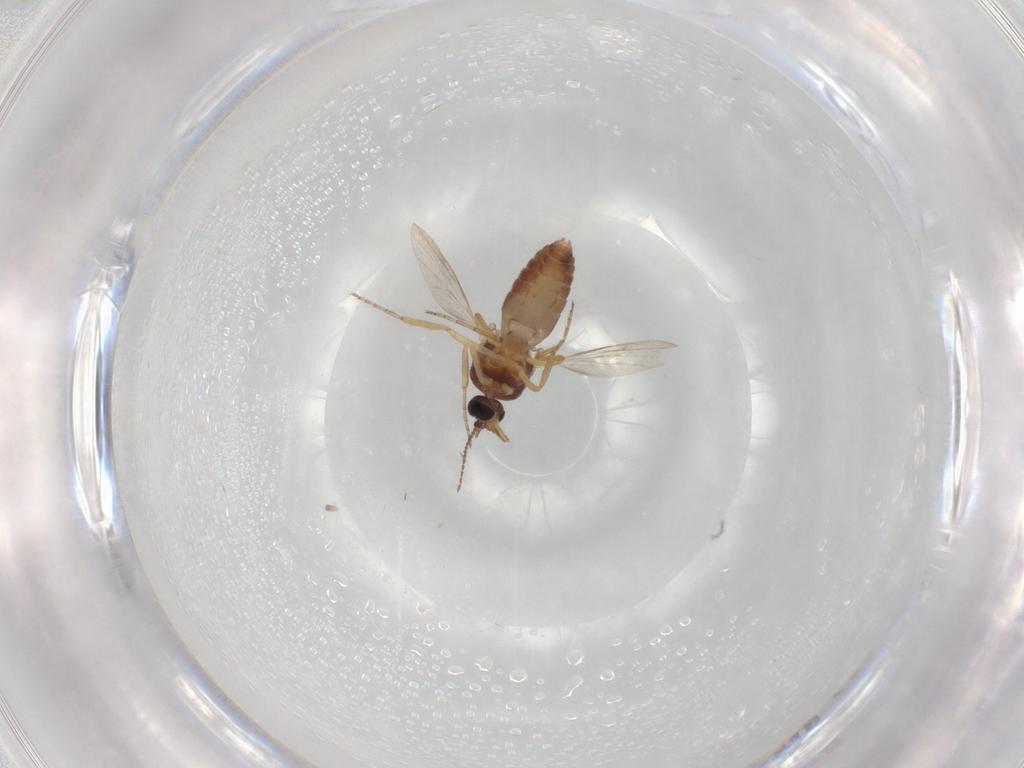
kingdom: Animalia
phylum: Arthropoda
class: Insecta
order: Diptera
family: Ceratopogonidae
